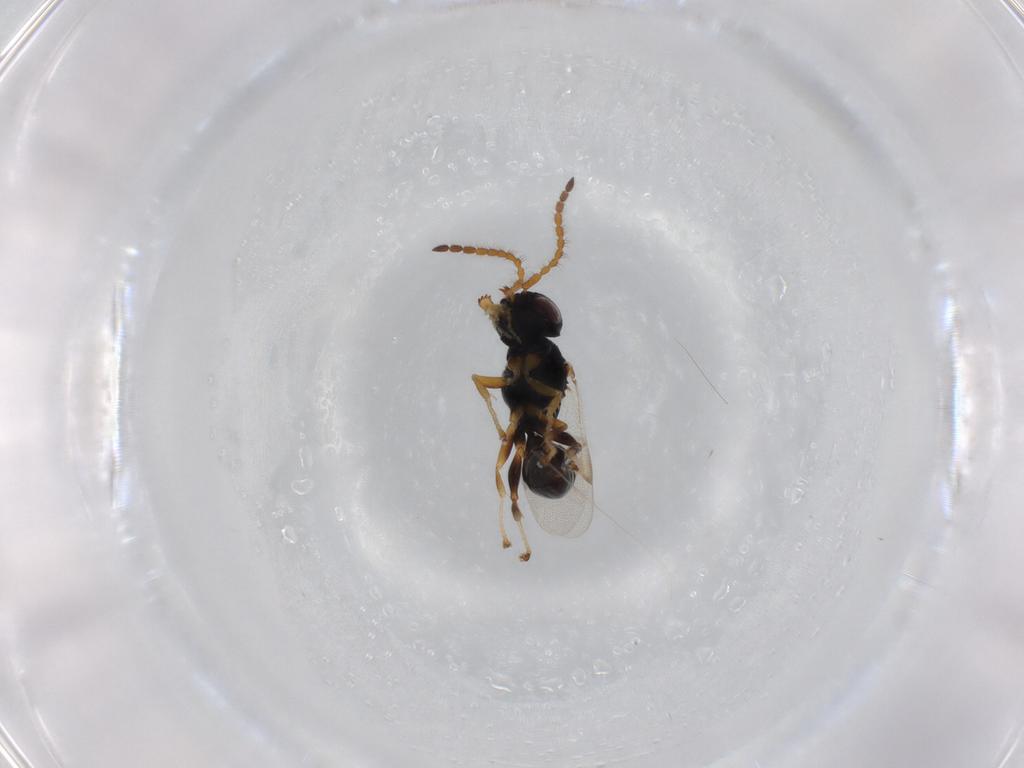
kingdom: Animalia
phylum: Arthropoda
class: Insecta
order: Hymenoptera
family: Dryinidae
